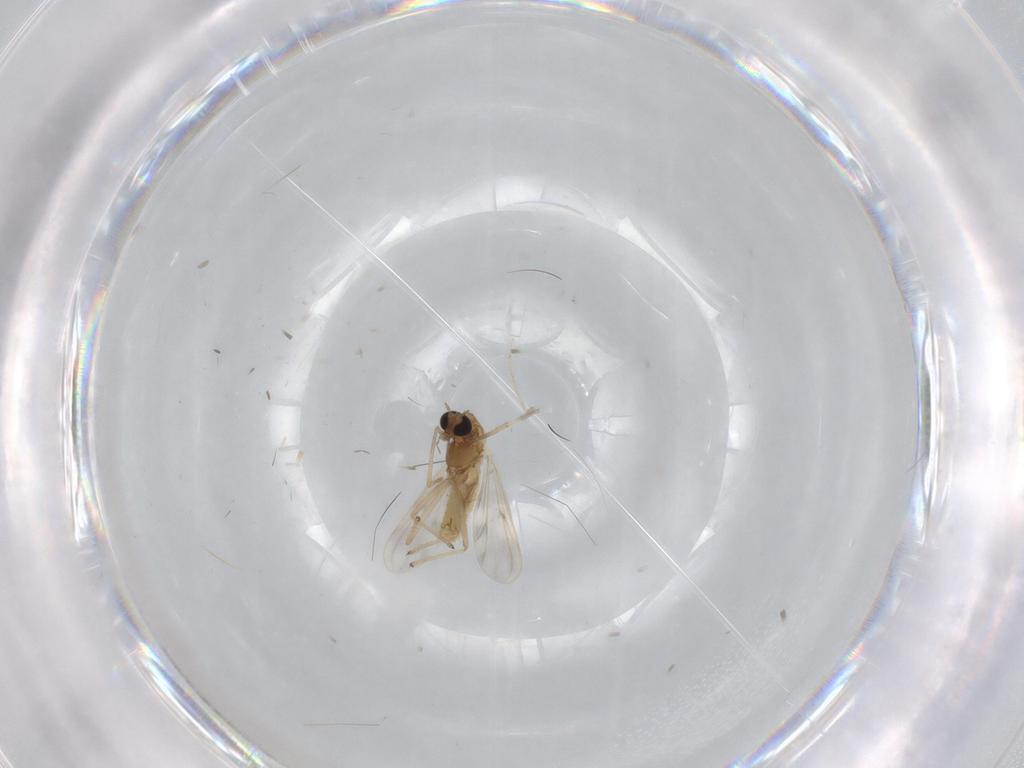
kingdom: Animalia
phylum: Arthropoda
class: Insecta
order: Diptera
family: Chironomidae
